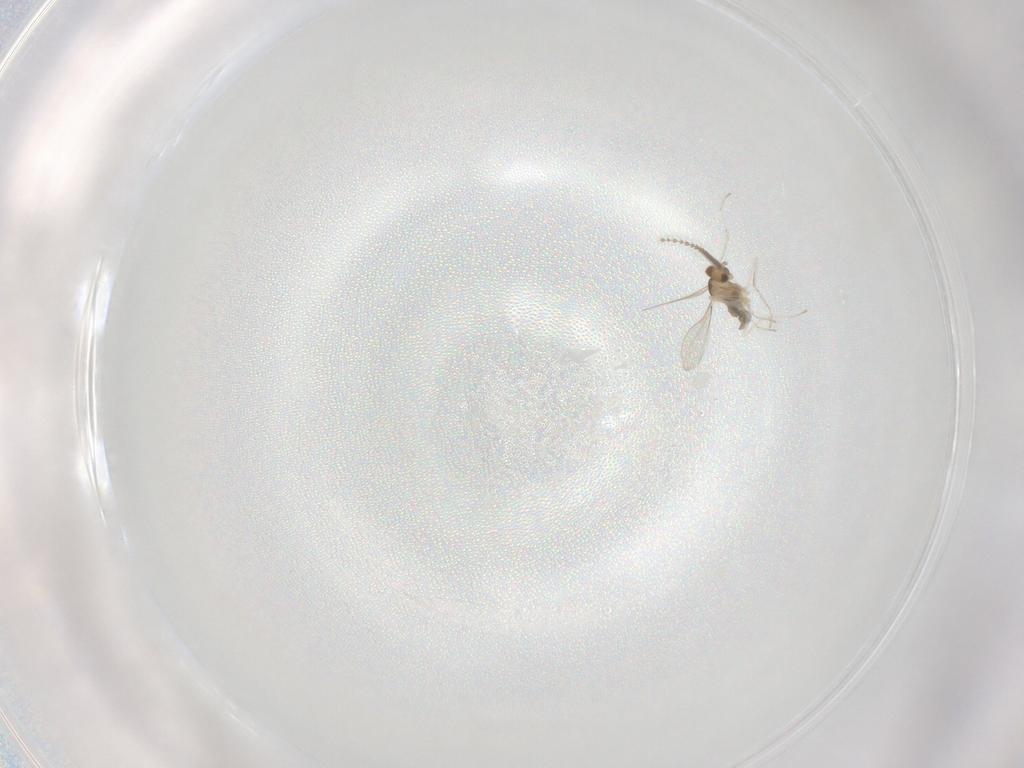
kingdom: Animalia
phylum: Arthropoda
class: Insecta
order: Diptera
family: Cecidomyiidae
